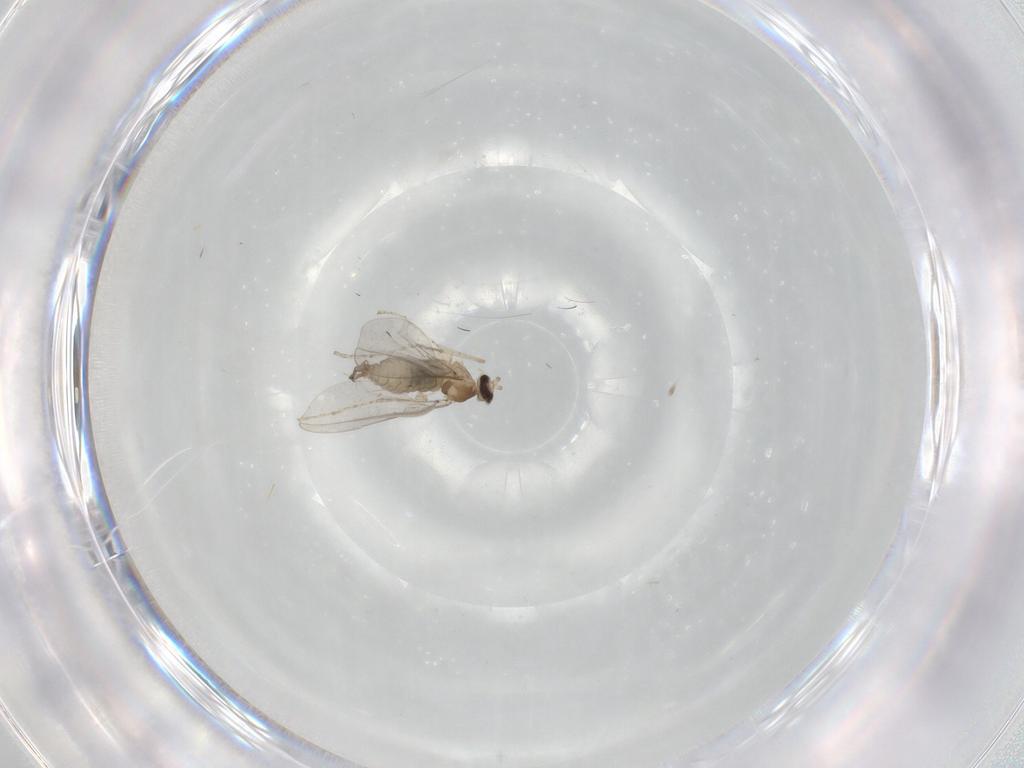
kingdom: Animalia
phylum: Arthropoda
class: Insecta
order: Diptera
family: Cecidomyiidae
